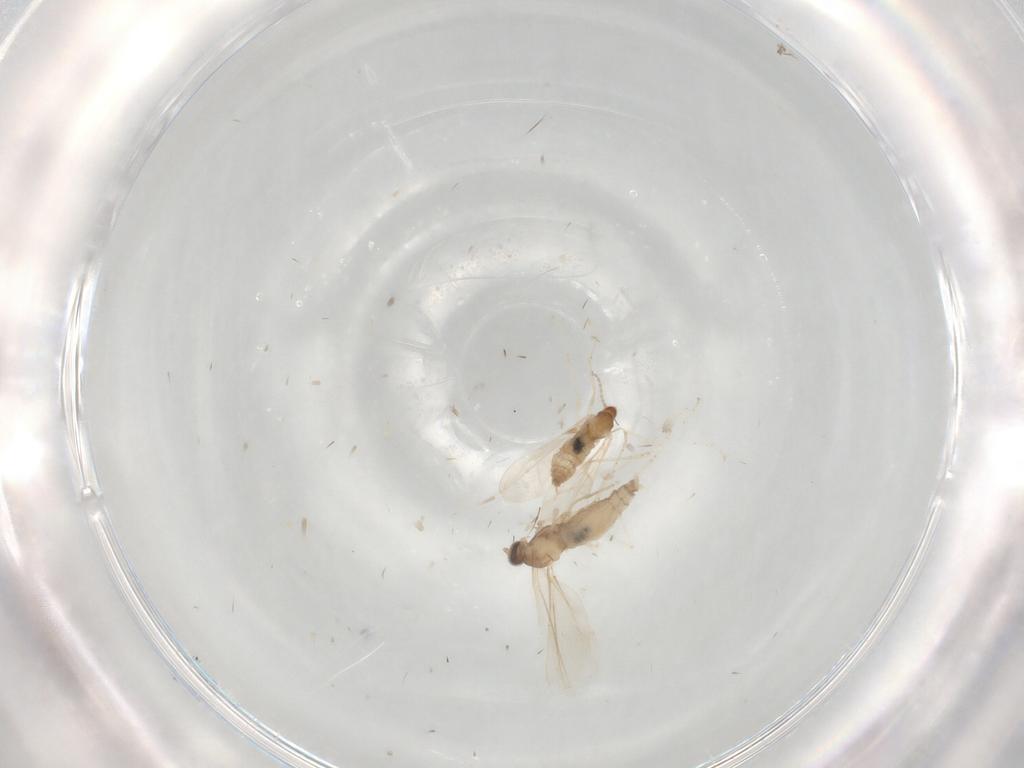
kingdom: Animalia
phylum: Arthropoda
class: Insecta
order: Diptera
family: Cecidomyiidae
